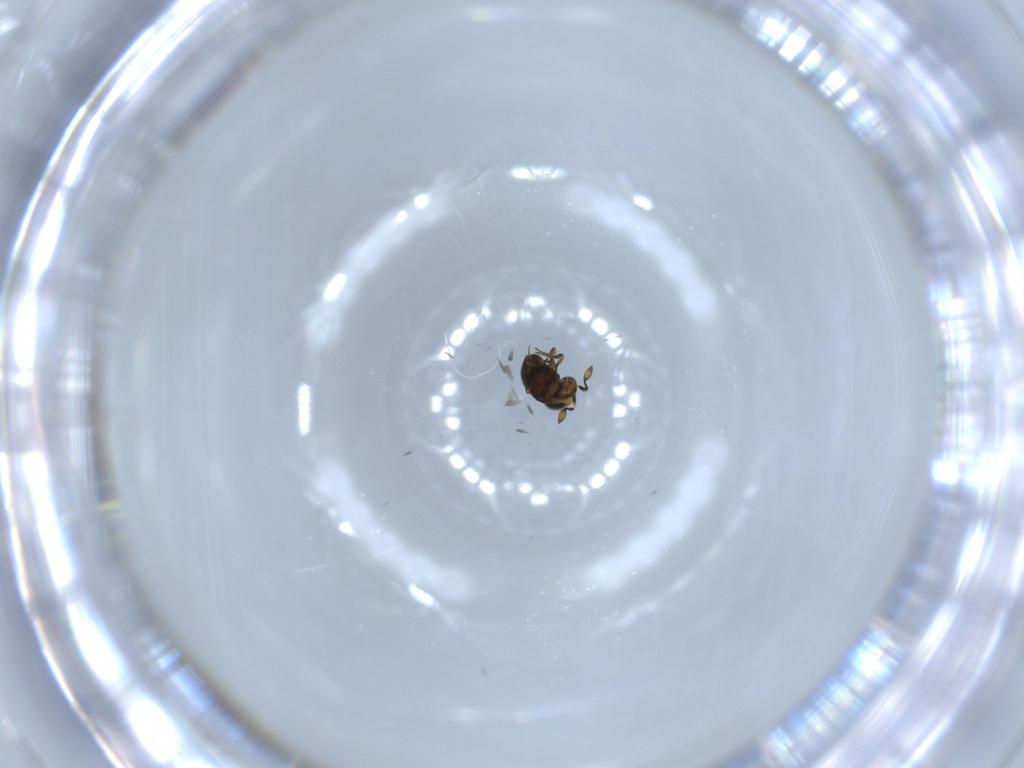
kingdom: Animalia
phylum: Arthropoda
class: Insecta
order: Hymenoptera
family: Scelionidae
